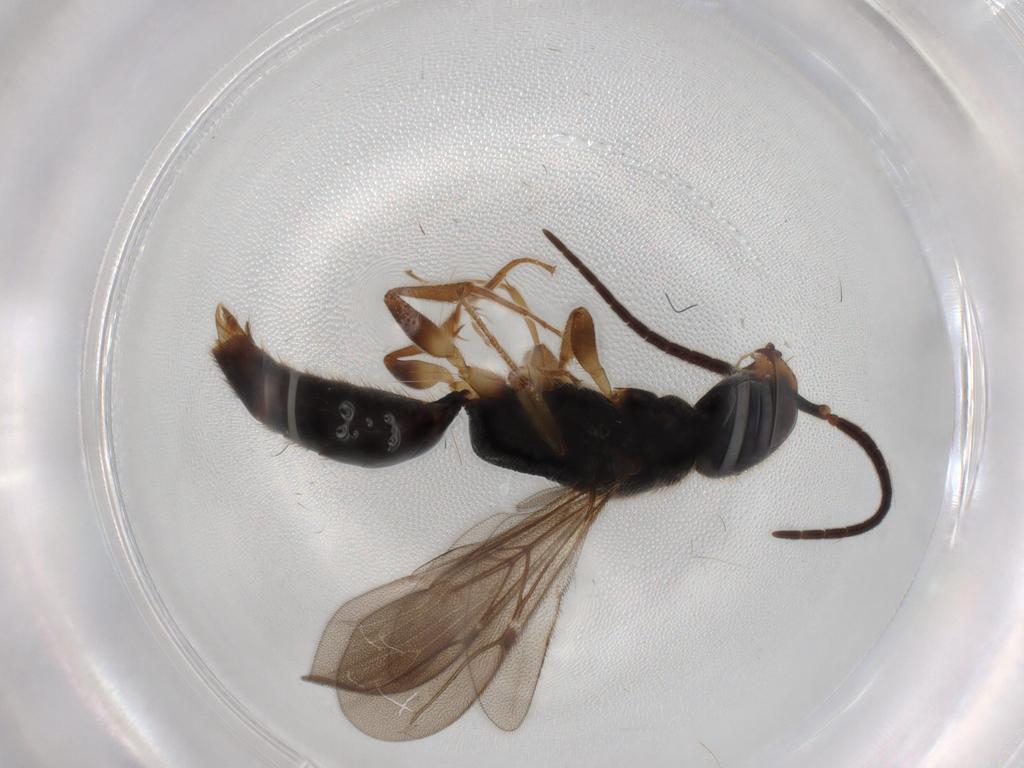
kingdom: Animalia
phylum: Arthropoda
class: Insecta
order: Hymenoptera
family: Bethylidae
